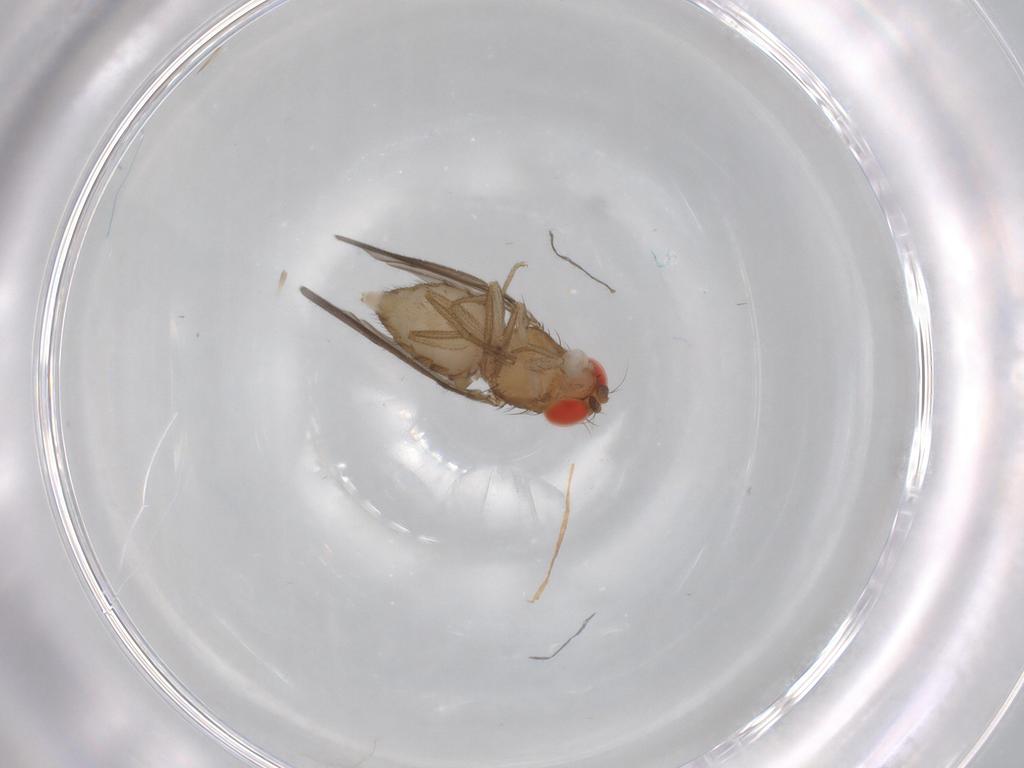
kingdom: Animalia
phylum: Arthropoda
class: Insecta
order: Diptera
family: Drosophilidae
